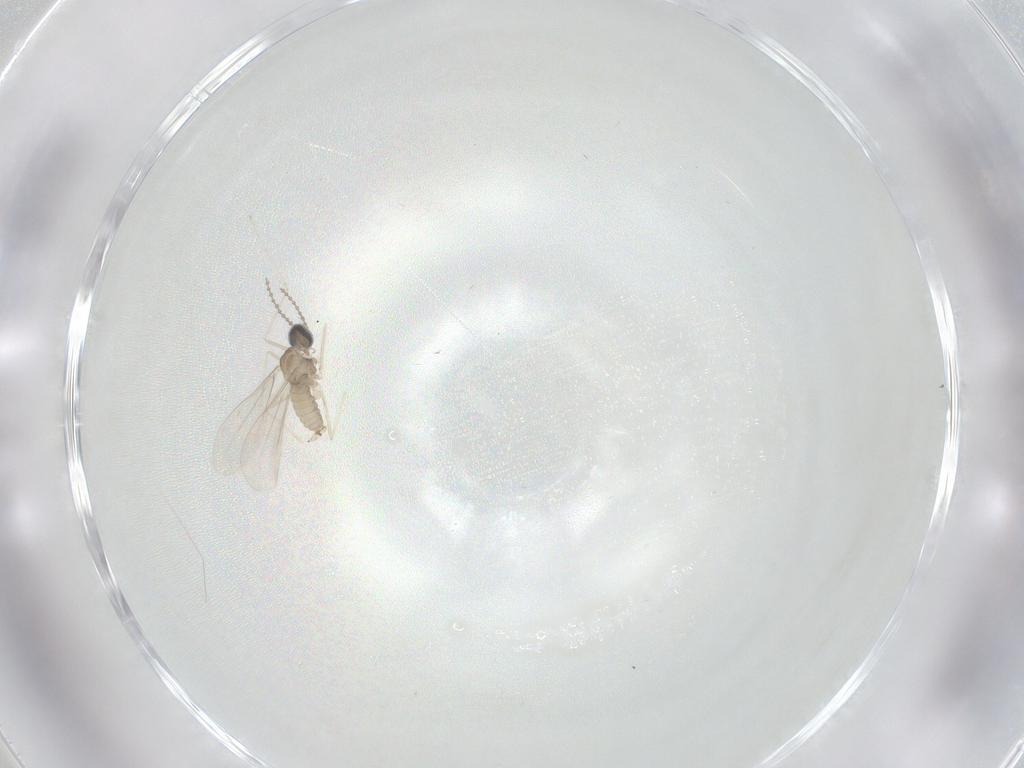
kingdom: Animalia
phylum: Arthropoda
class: Insecta
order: Diptera
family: Cecidomyiidae
